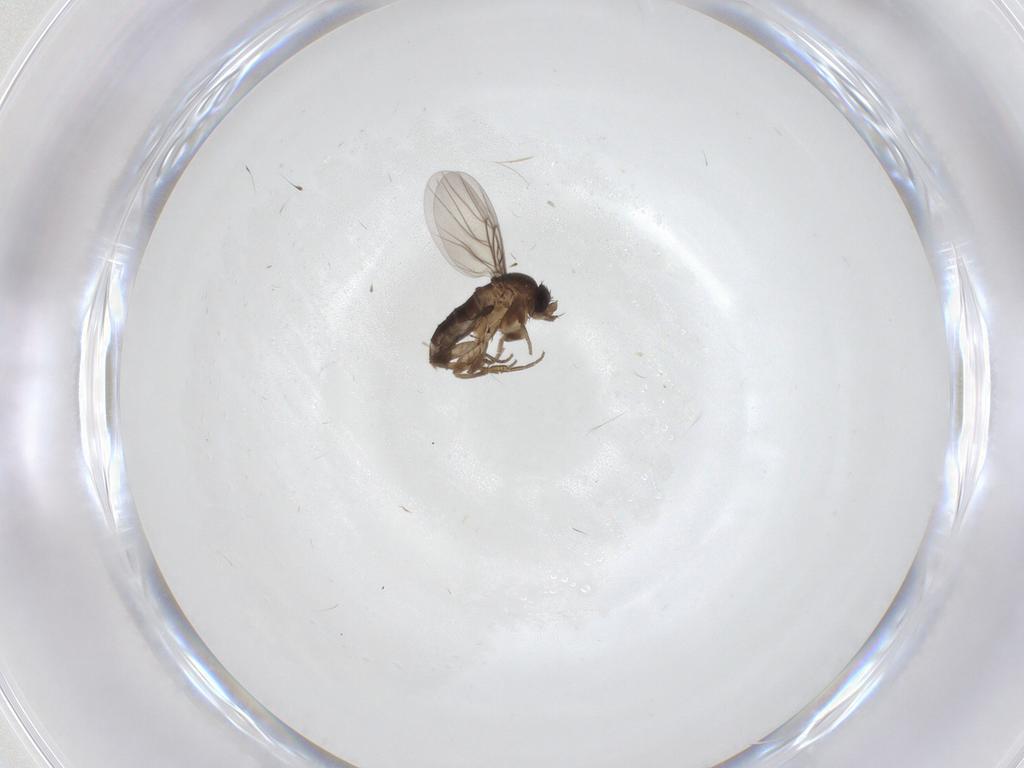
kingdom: Animalia
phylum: Arthropoda
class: Insecta
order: Diptera
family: Phoridae
